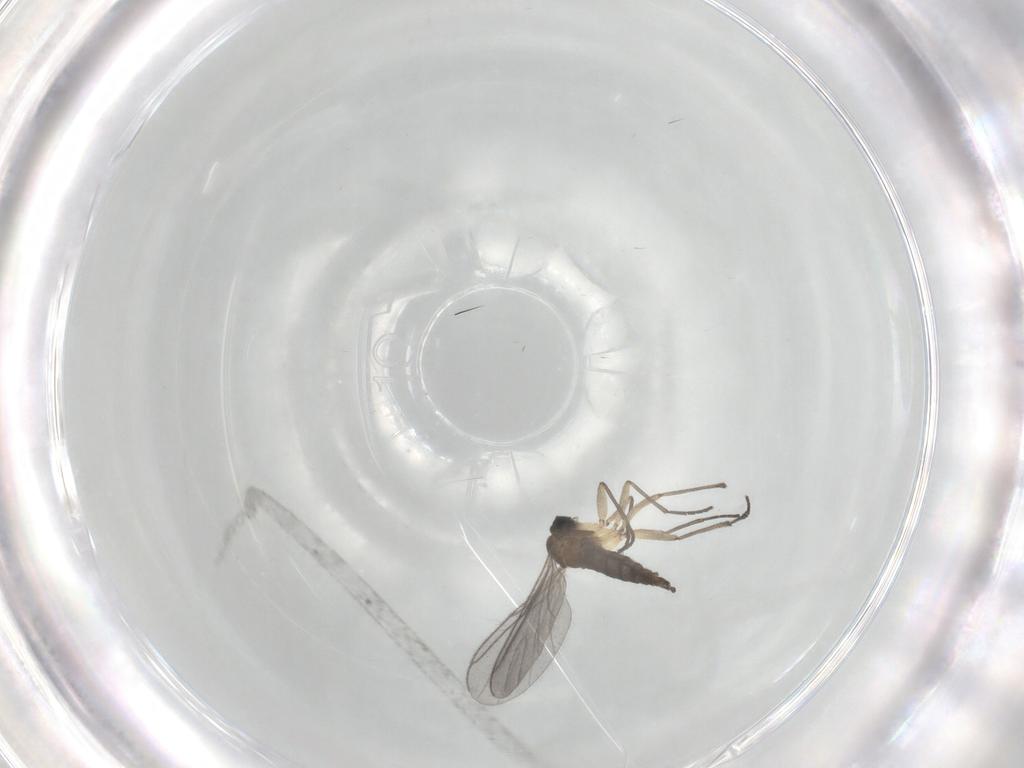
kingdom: Animalia
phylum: Arthropoda
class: Insecta
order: Diptera
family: Sciaridae
